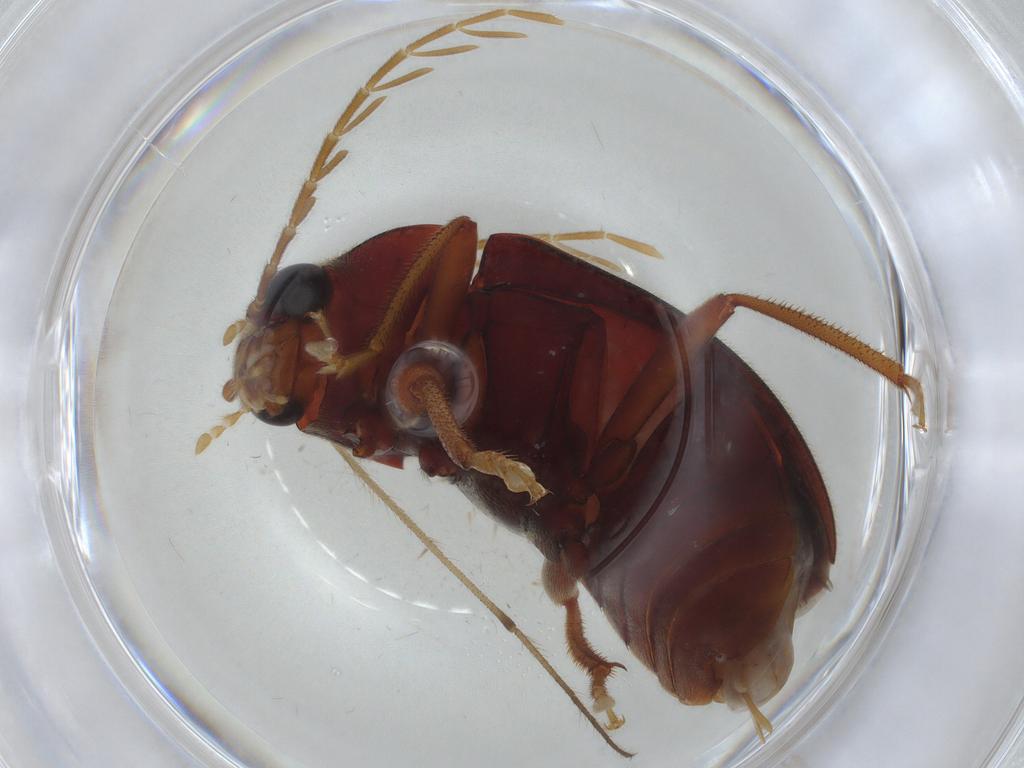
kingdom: Animalia
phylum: Arthropoda
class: Insecta
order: Coleoptera
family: Ptilodactylidae
